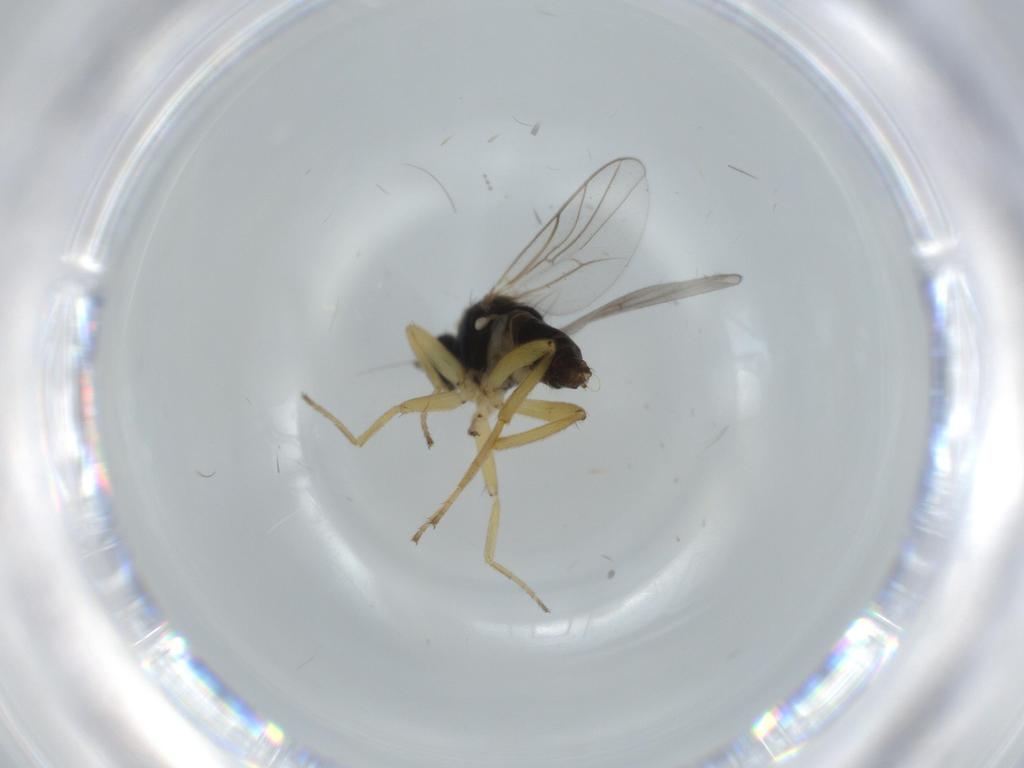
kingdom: Animalia
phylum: Arthropoda
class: Insecta
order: Diptera
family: Hybotidae
